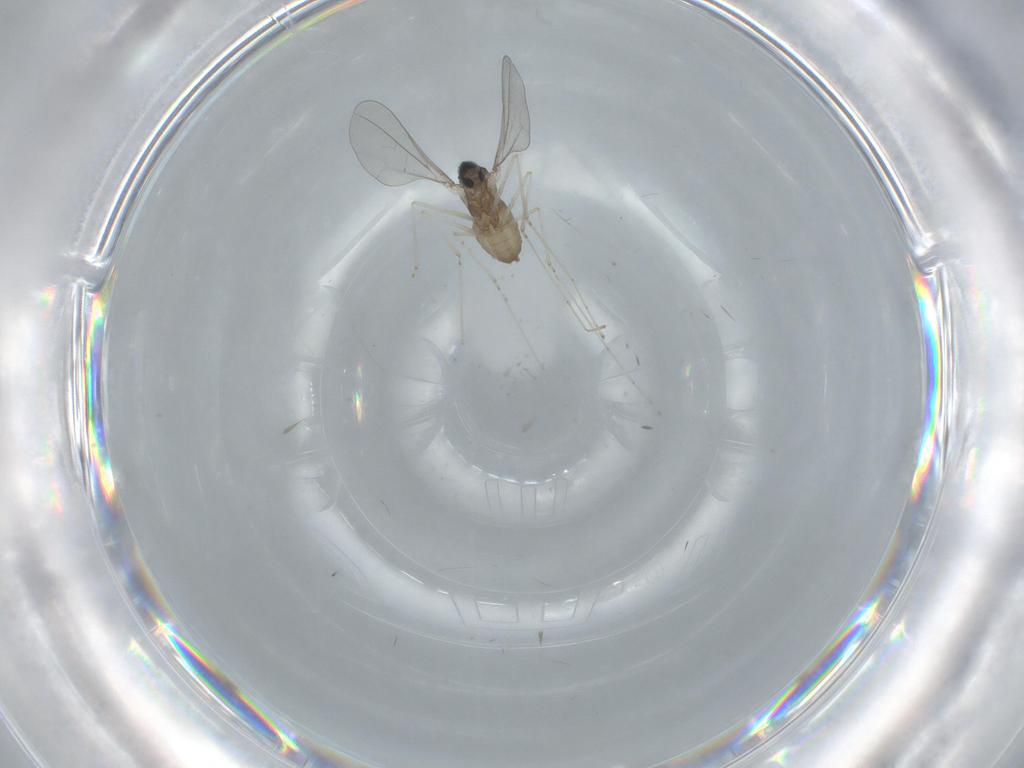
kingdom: Animalia
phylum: Arthropoda
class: Insecta
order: Diptera
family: Cecidomyiidae
